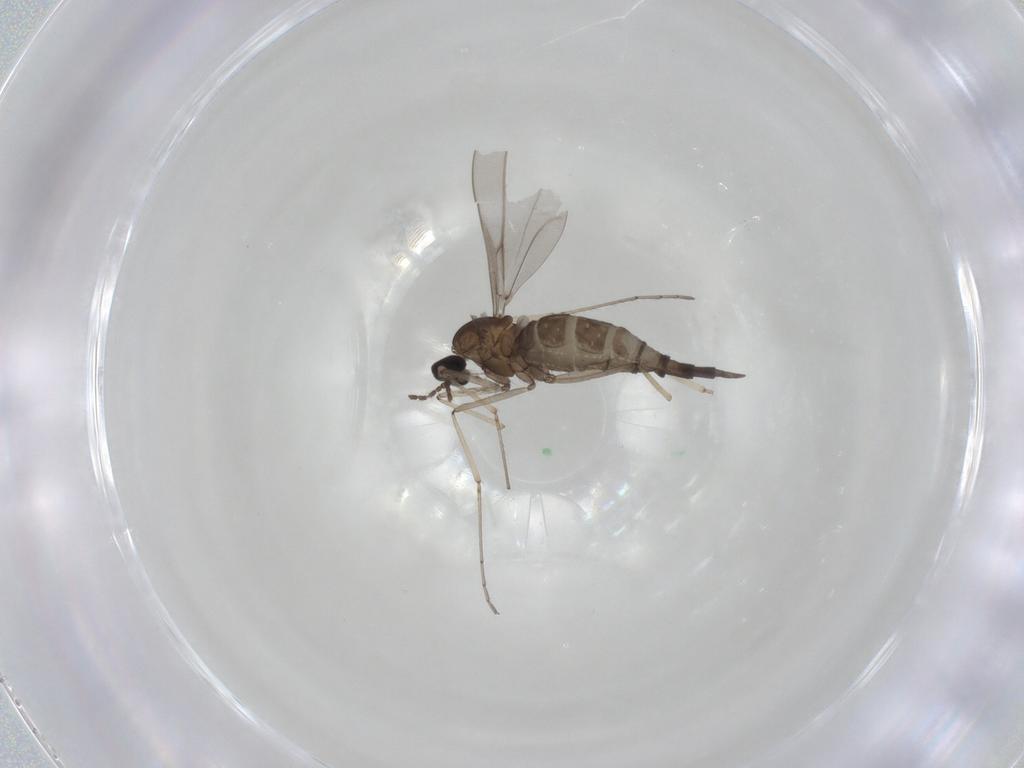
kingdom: Animalia
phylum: Arthropoda
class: Insecta
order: Diptera
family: Cecidomyiidae
